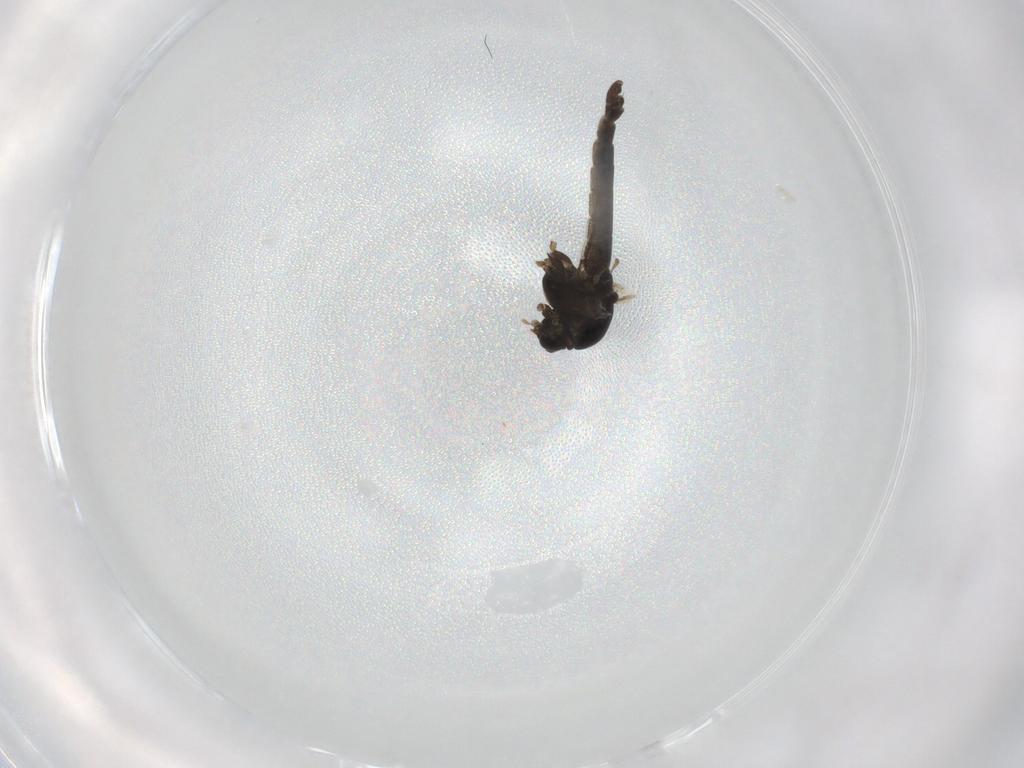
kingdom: Animalia
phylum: Arthropoda
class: Insecta
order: Diptera
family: Chironomidae
